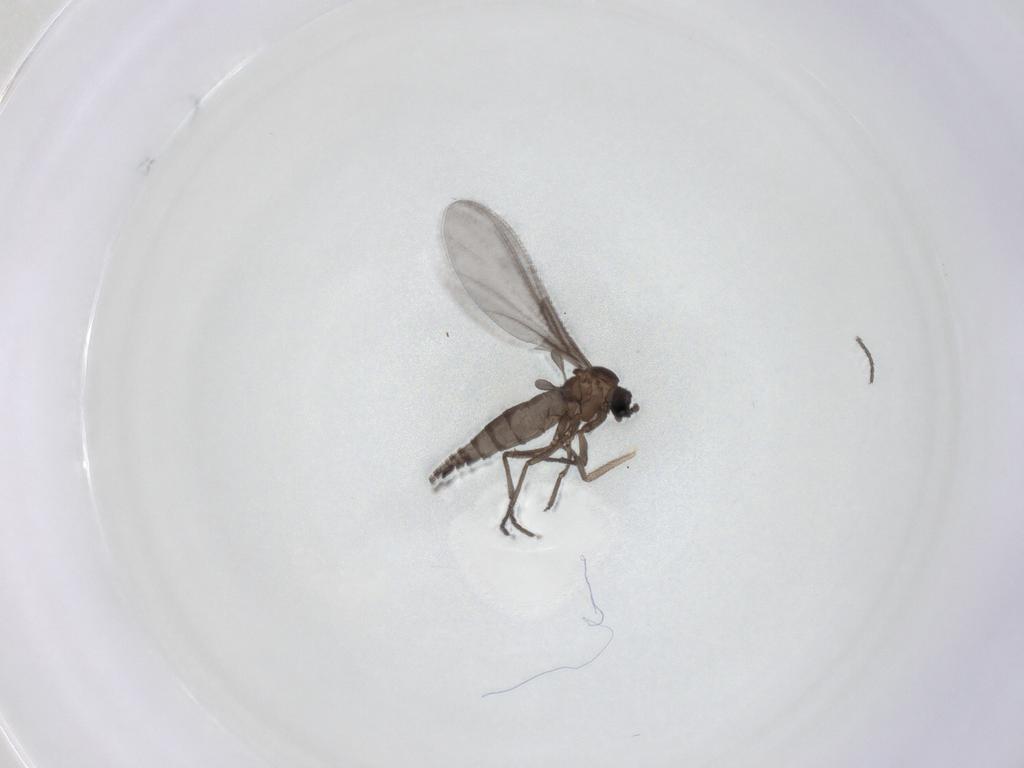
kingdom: Animalia
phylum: Arthropoda
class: Insecta
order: Diptera
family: Sciaridae
